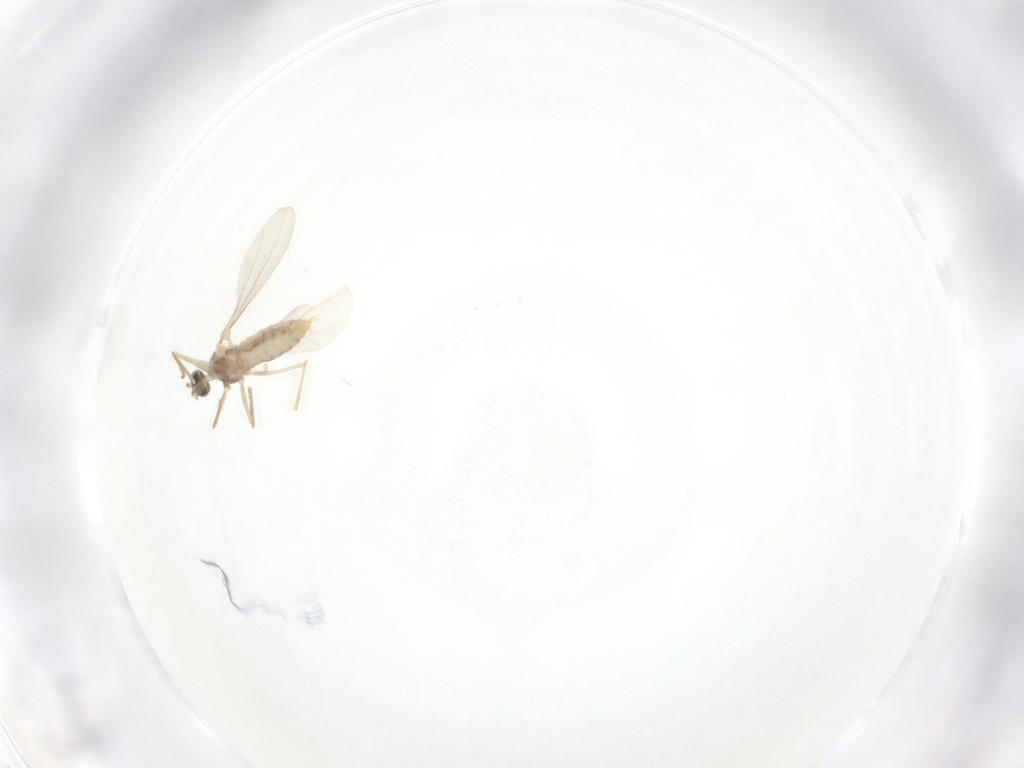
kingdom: Animalia
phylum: Arthropoda
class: Insecta
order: Diptera
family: Cecidomyiidae
